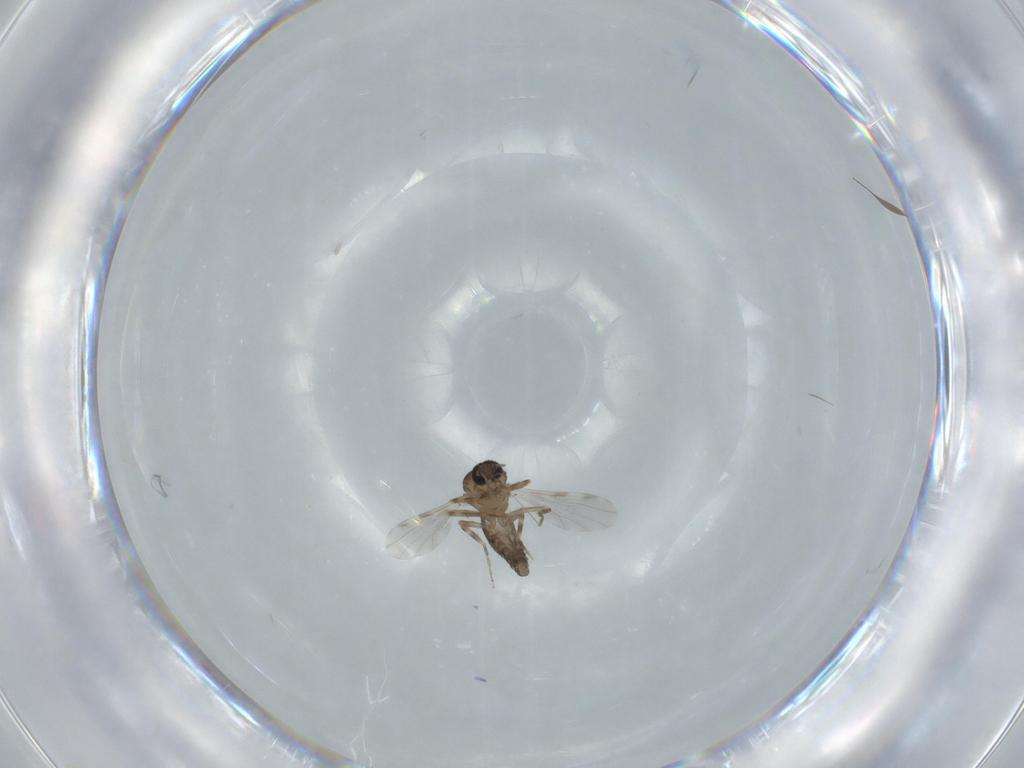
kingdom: Animalia
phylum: Arthropoda
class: Insecta
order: Diptera
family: Ceratopogonidae
